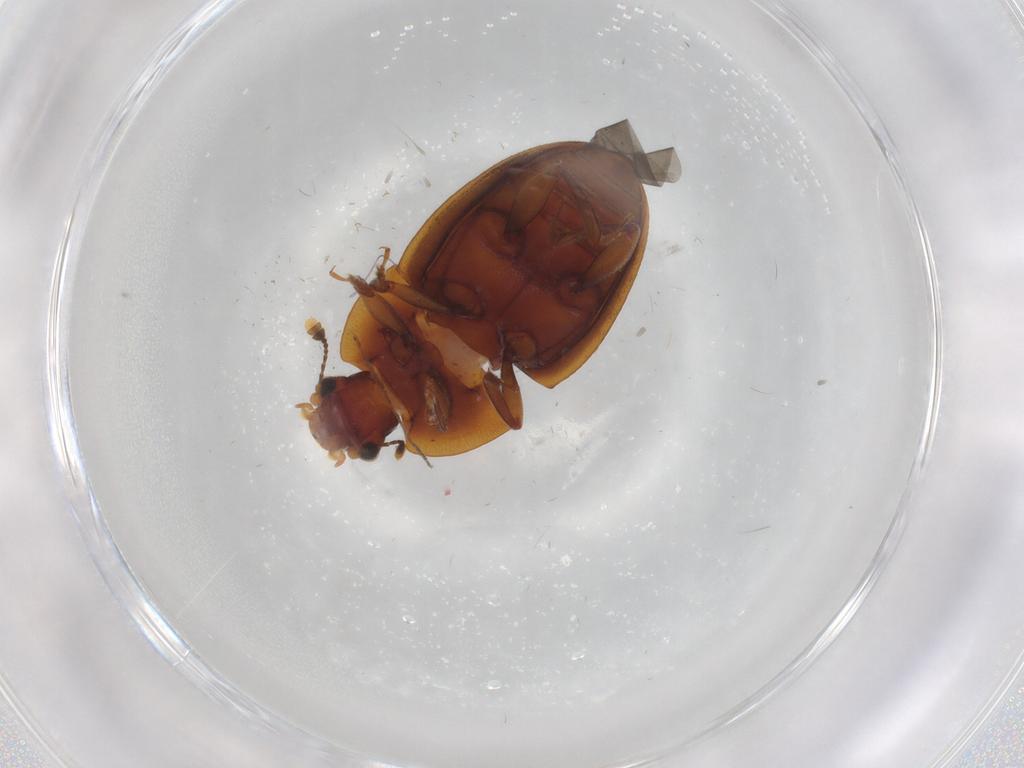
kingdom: Animalia
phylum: Arthropoda
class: Insecta
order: Coleoptera
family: Nitidulidae
